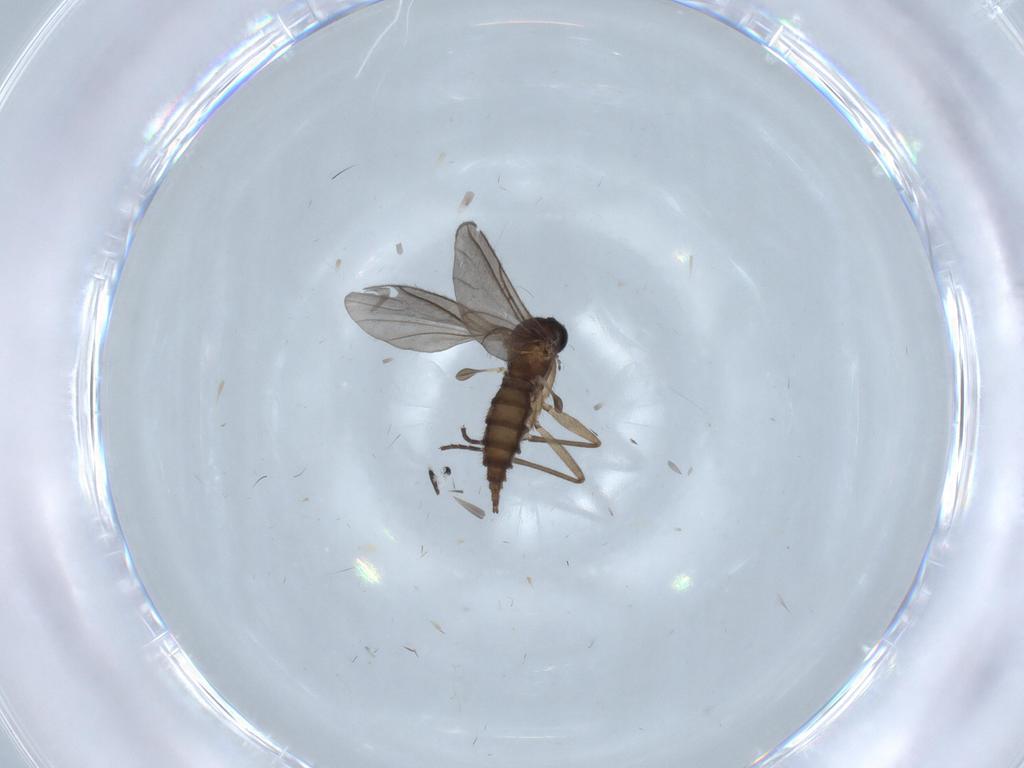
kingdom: Animalia
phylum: Arthropoda
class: Insecta
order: Diptera
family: Sciaridae
